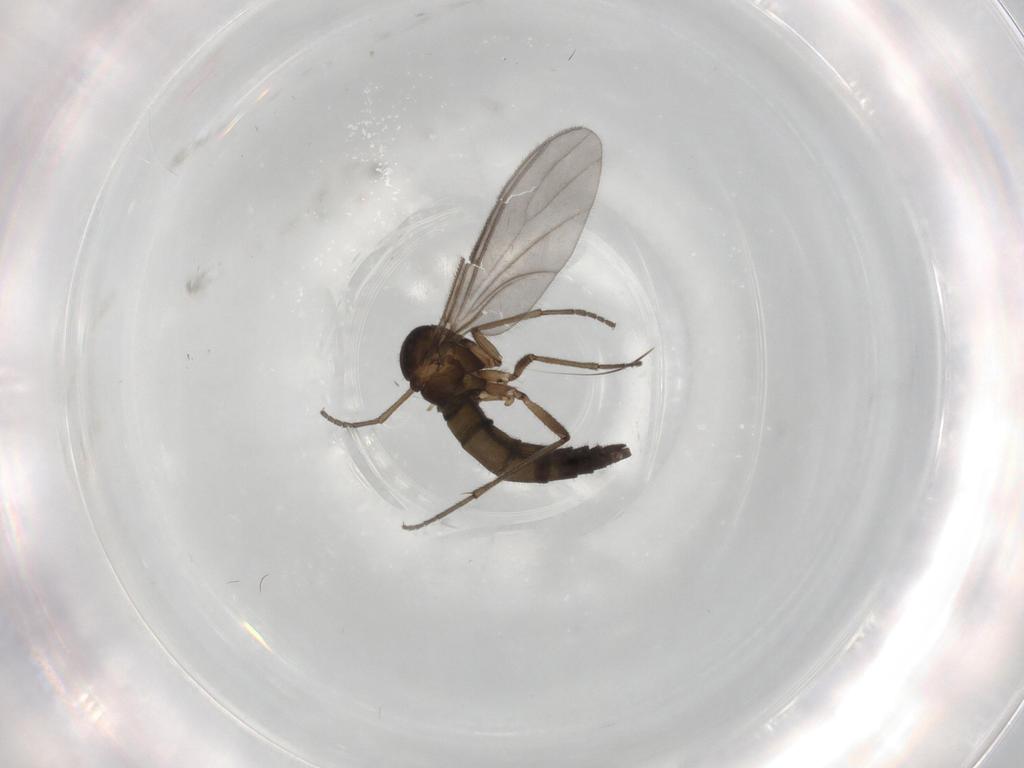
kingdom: Animalia
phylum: Arthropoda
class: Insecta
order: Diptera
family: Sciaridae
